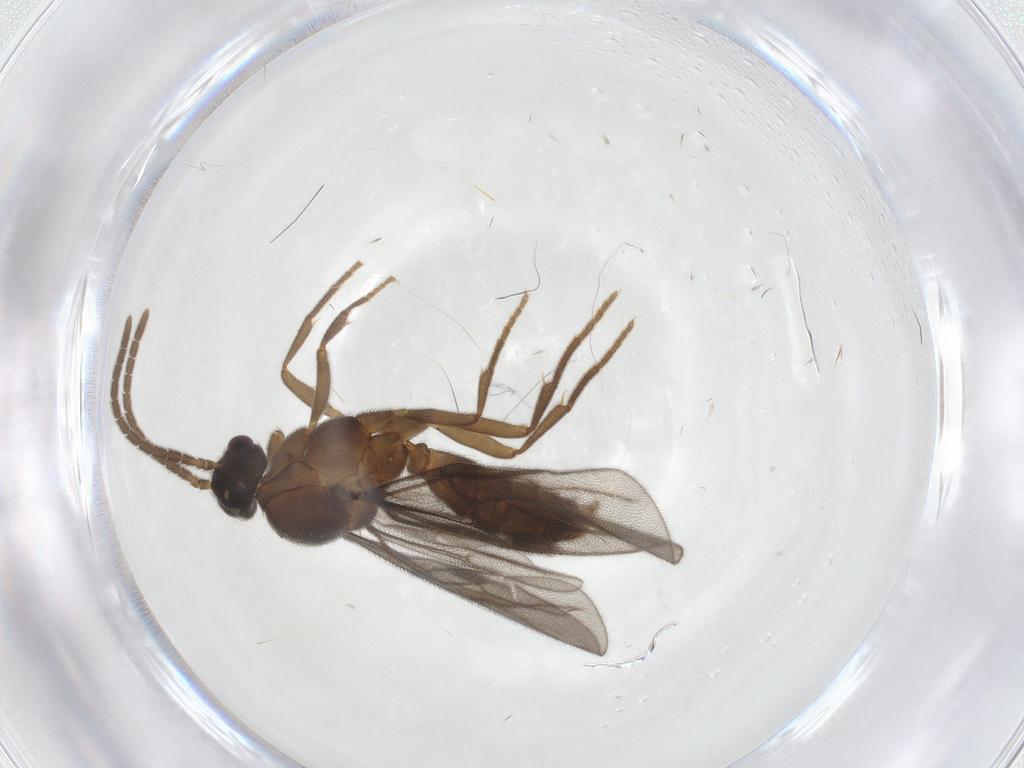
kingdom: Animalia
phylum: Arthropoda
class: Insecta
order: Hymenoptera
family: Formicidae
